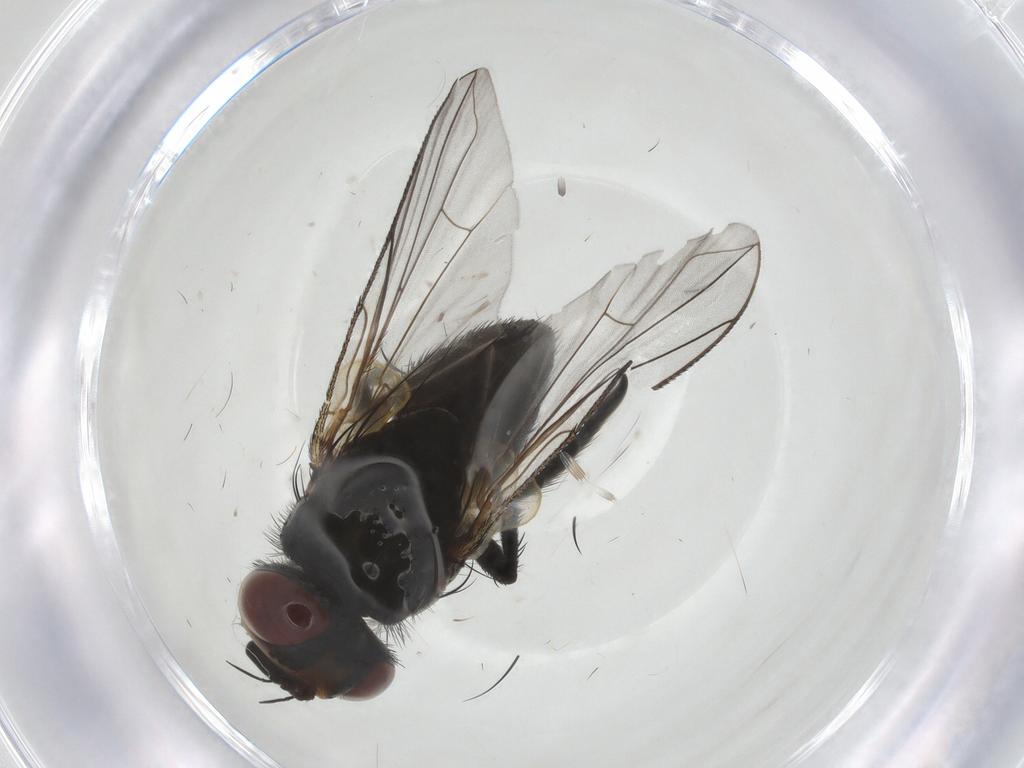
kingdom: Animalia
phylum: Arthropoda
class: Insecta
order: Diptera
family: Tachinidae
